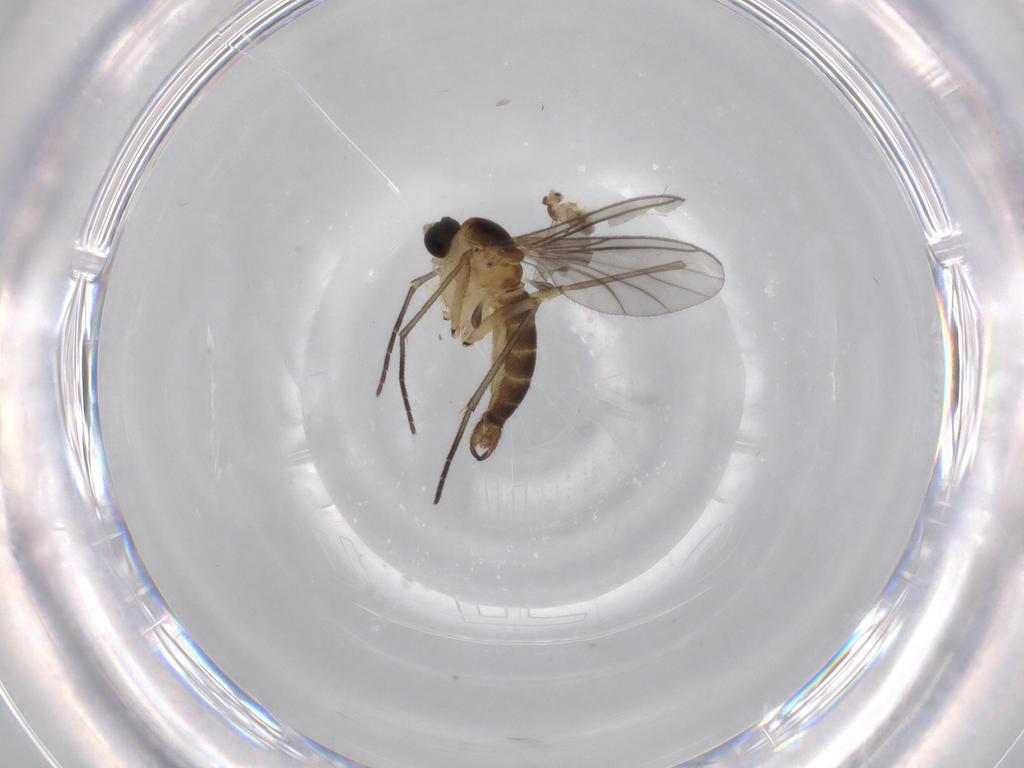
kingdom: Animalia
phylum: Arthropoda
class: Insecta
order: Diptera
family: Sciaridae
